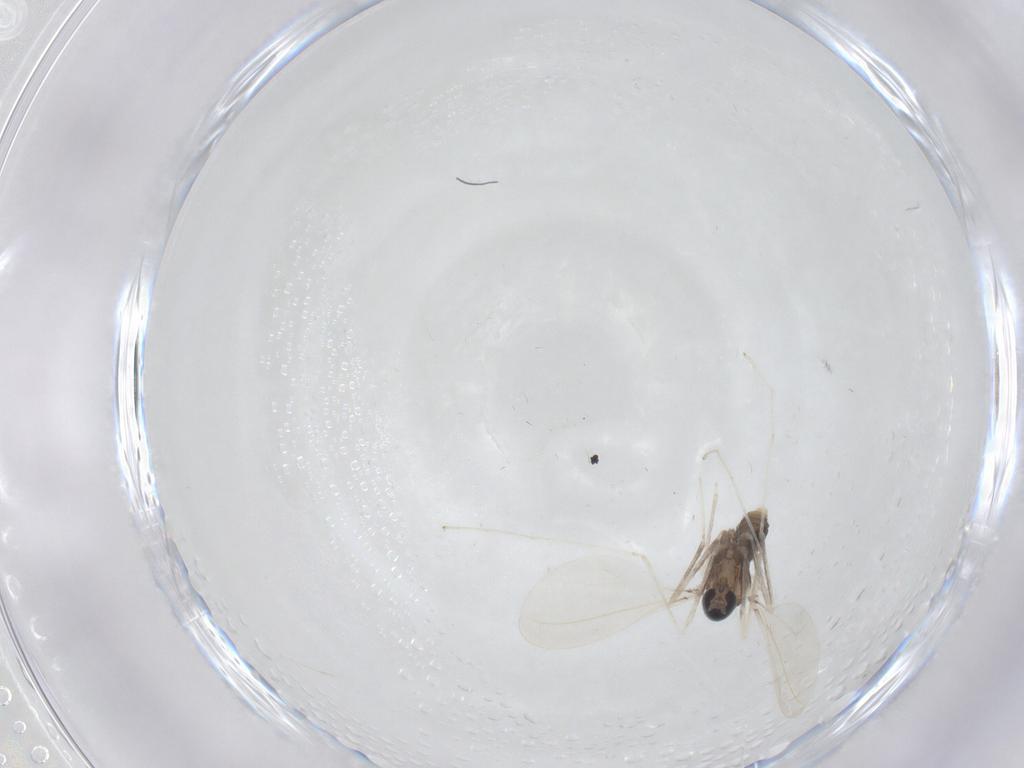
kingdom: Animalia
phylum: Arthropoda
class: Insecta
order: Diptera
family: Cecidomyiidae
